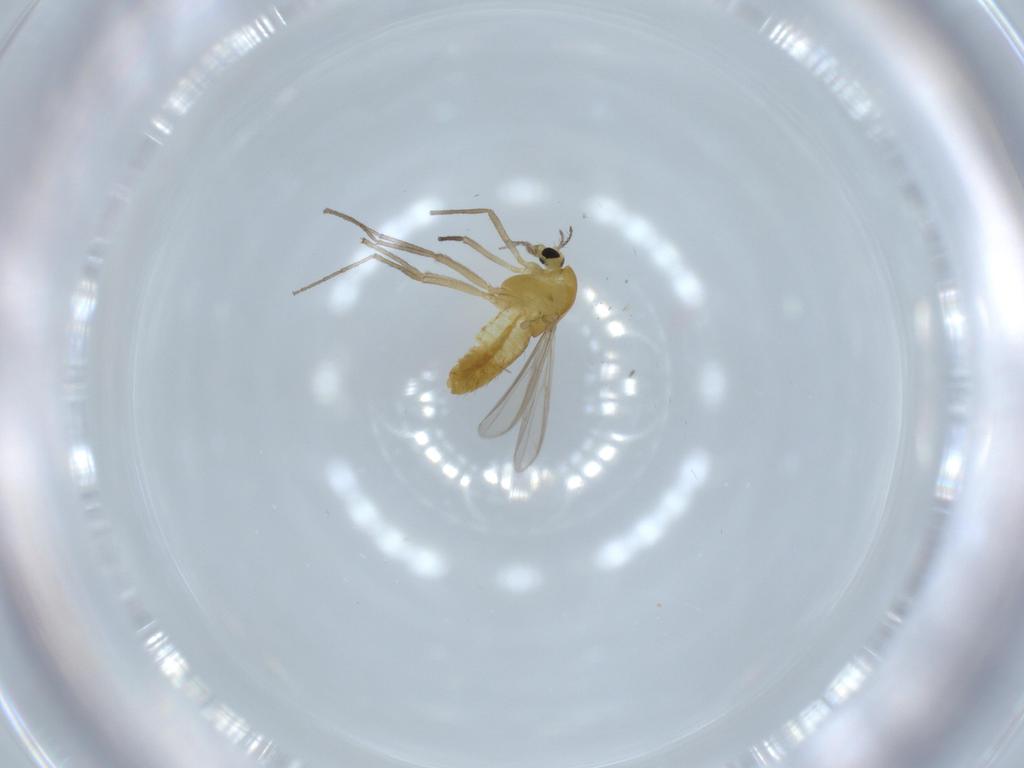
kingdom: Animalia
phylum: Arthropoda
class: Insecta
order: Diptera
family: Chironomidae
